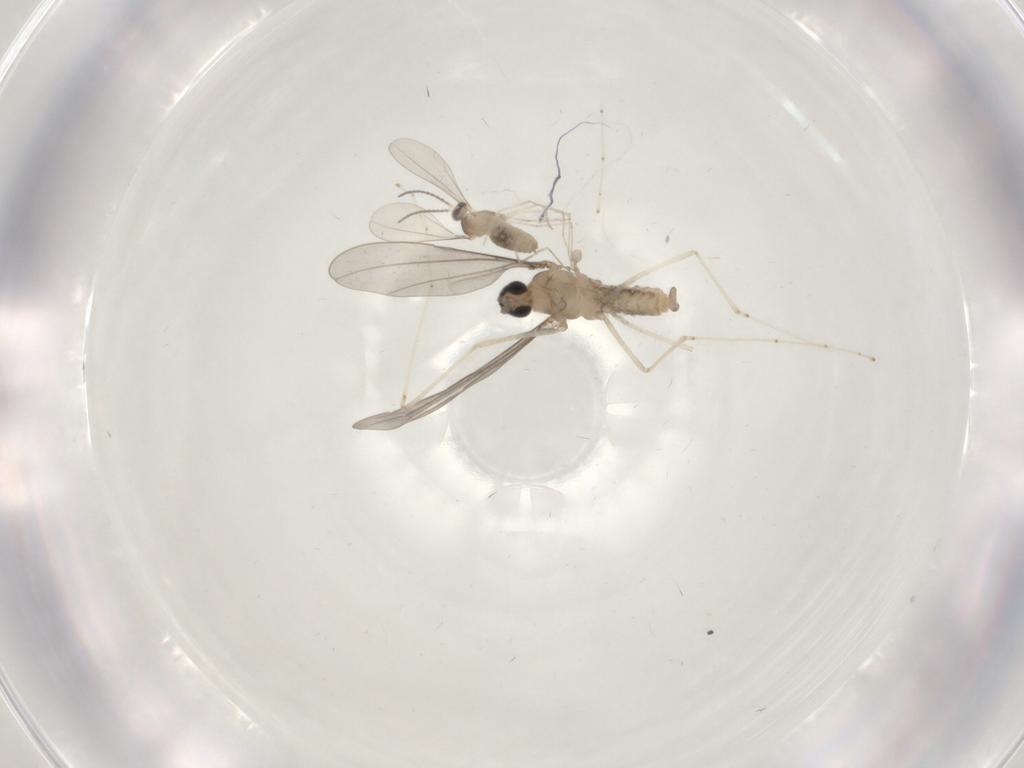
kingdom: Animalia
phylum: Arthropoda
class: Insecta
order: Diptera
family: Cecidomyiidae
